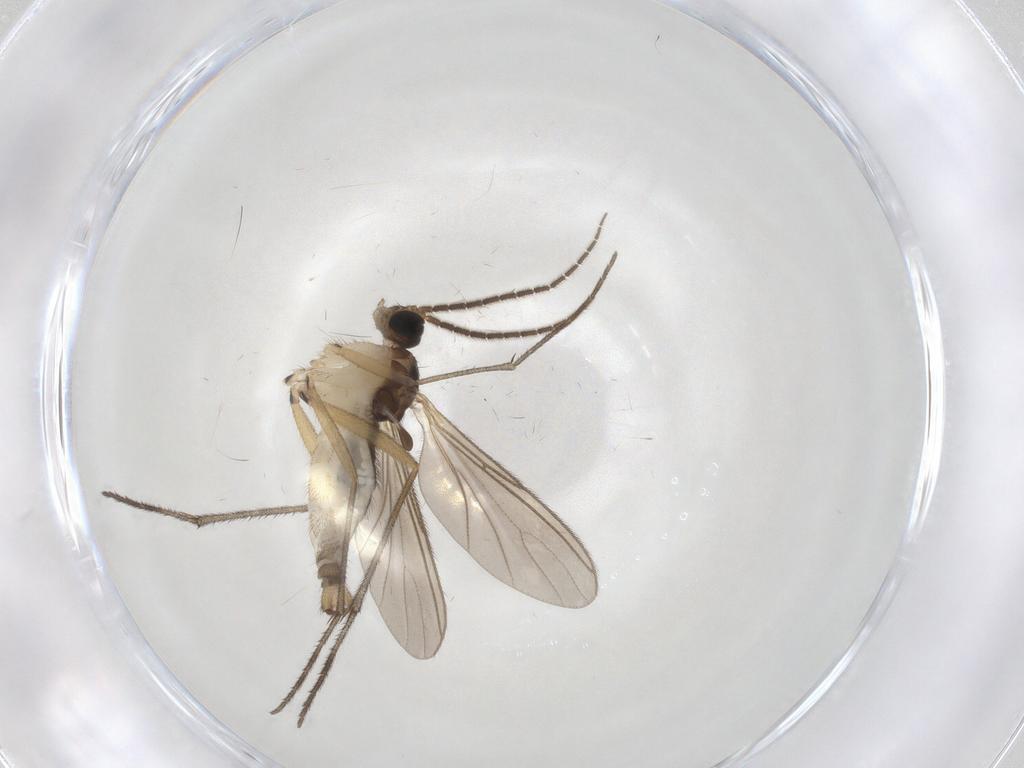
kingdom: Animalia
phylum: Arthropoda
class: Insecta
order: Diptera
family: Sciaridae
